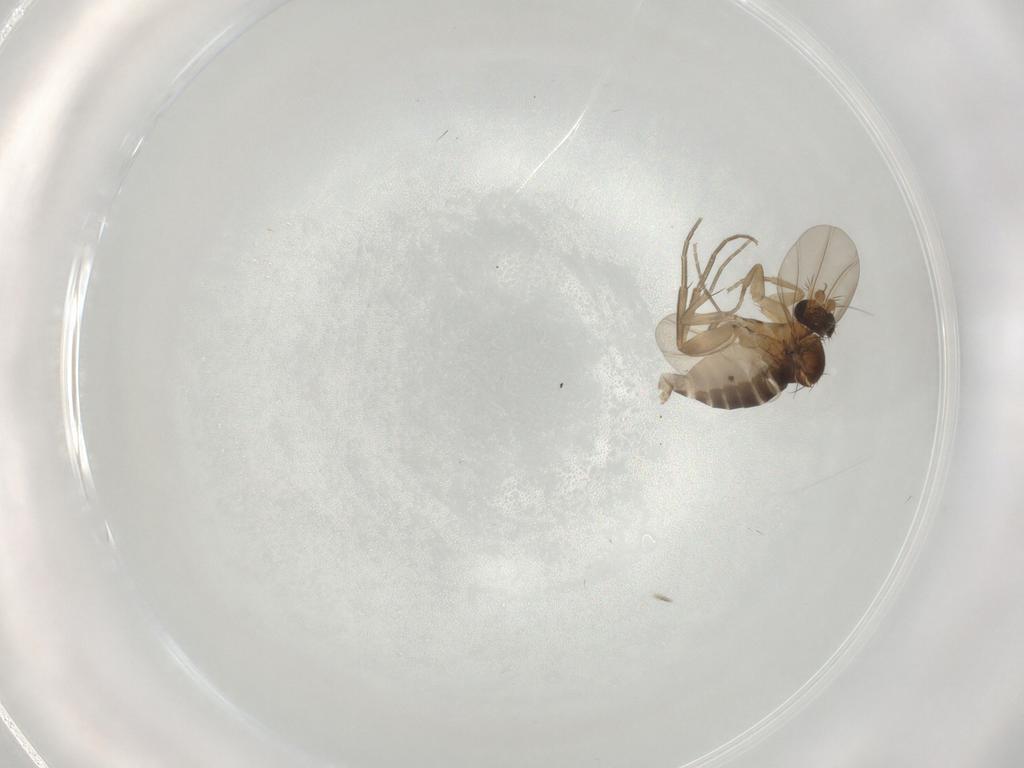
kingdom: Animalia
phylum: Arthropoda
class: Insecta
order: Diptera
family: Phoridae
